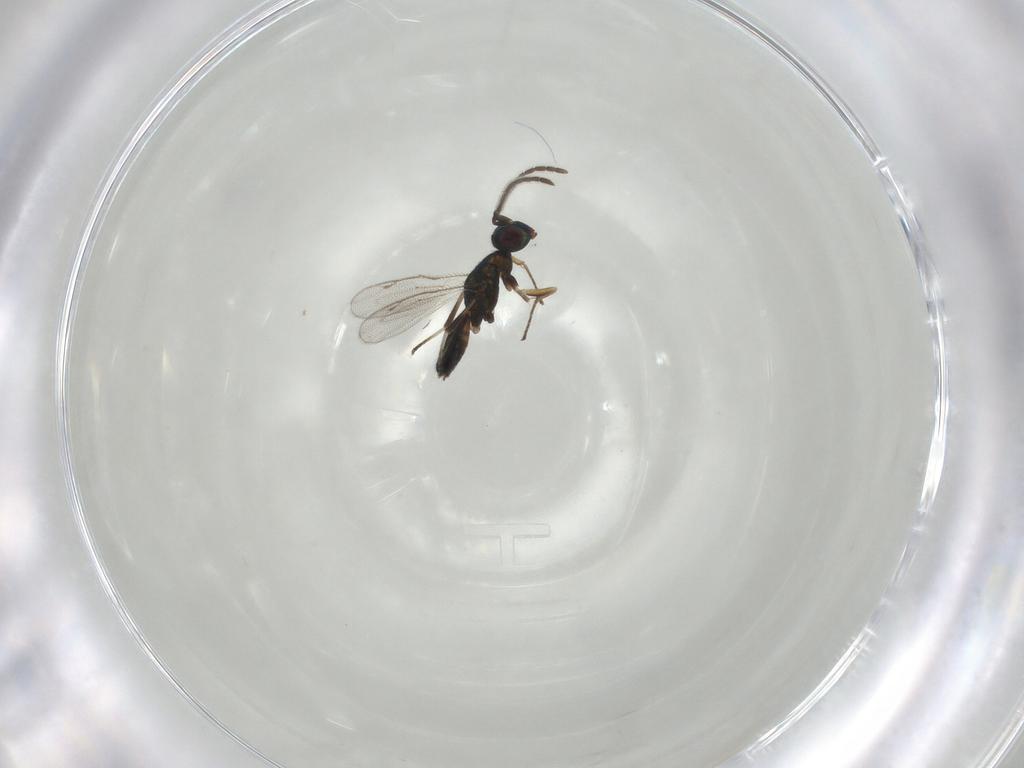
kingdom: Animalia
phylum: Arthropoda
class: Insecta
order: Hymenoptera
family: Eupelmidae
